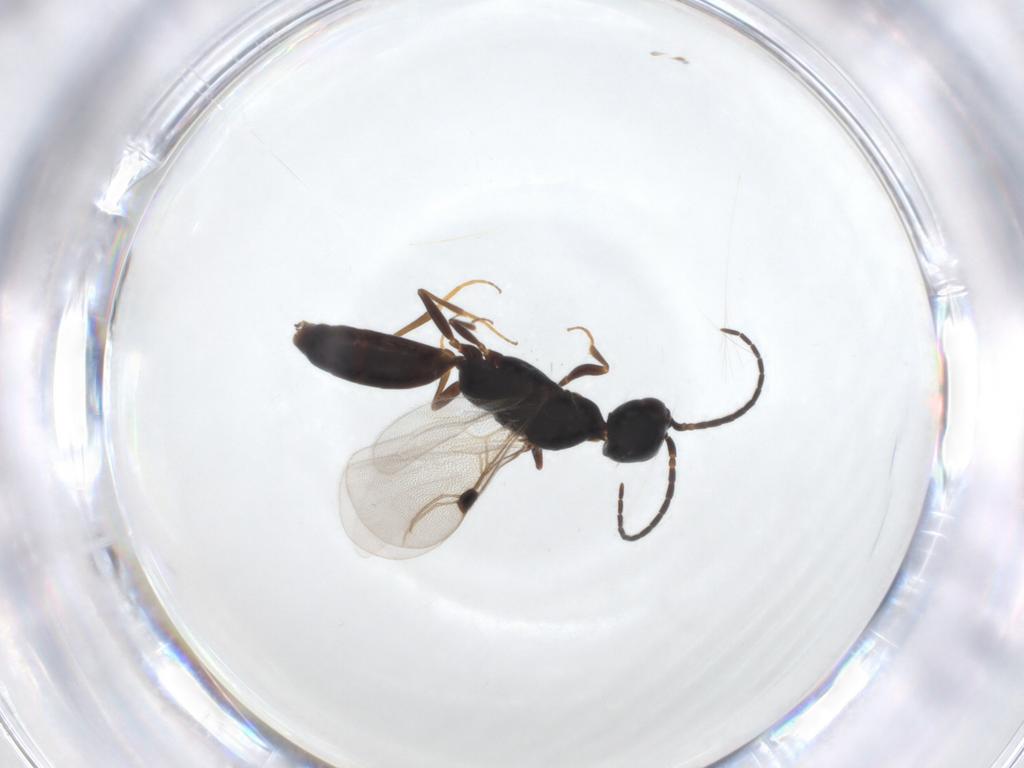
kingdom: Animalia
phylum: Arthropoda
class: Insecta
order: Hymenoptera
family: Bethylidae
